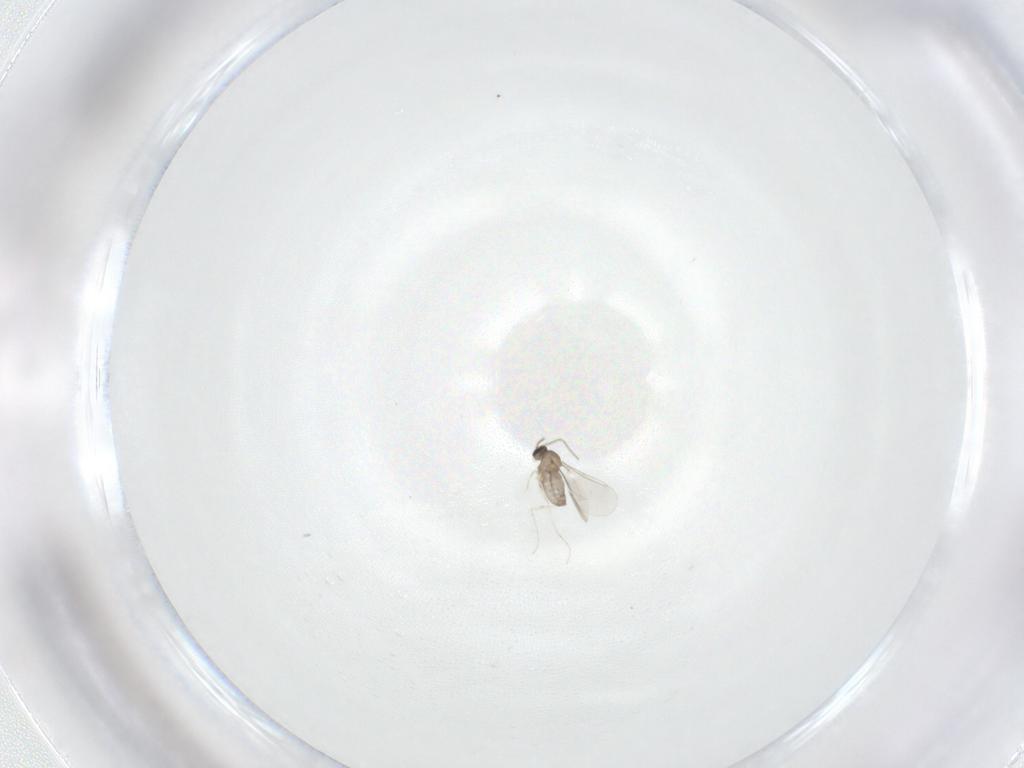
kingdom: Animalia
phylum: Arthropoda
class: Insecta
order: Diptera
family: Cecidomyiidae
